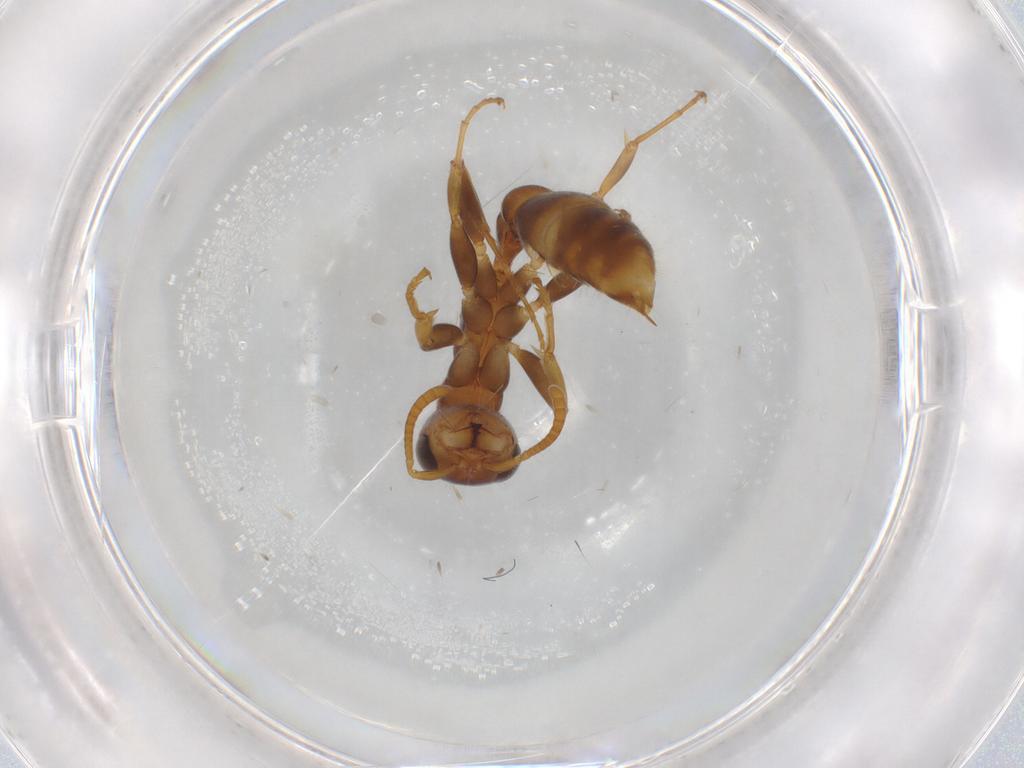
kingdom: Animalia
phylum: Arthropoda
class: Insecta
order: Hymenoptera
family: Formicidae
